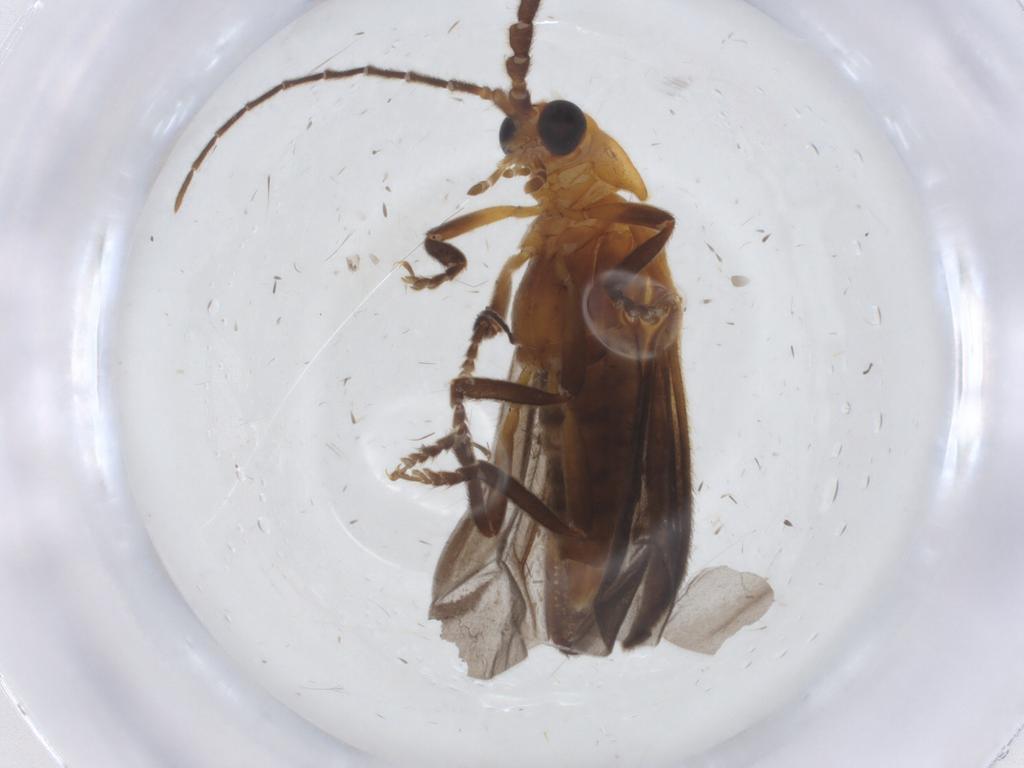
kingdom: Animalia
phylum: Arthropoda
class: Insecta
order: Coleoptera
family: Lycidae
